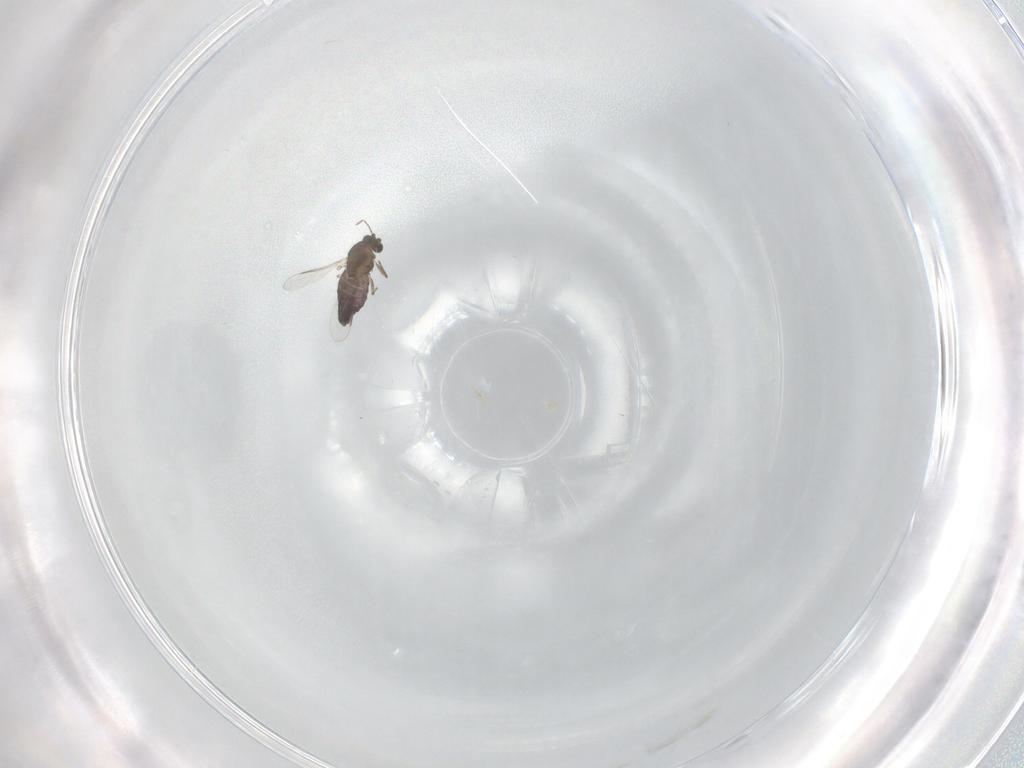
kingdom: Animalia
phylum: Arthropoda
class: Insecta
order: Diptera
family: Chironomidae
